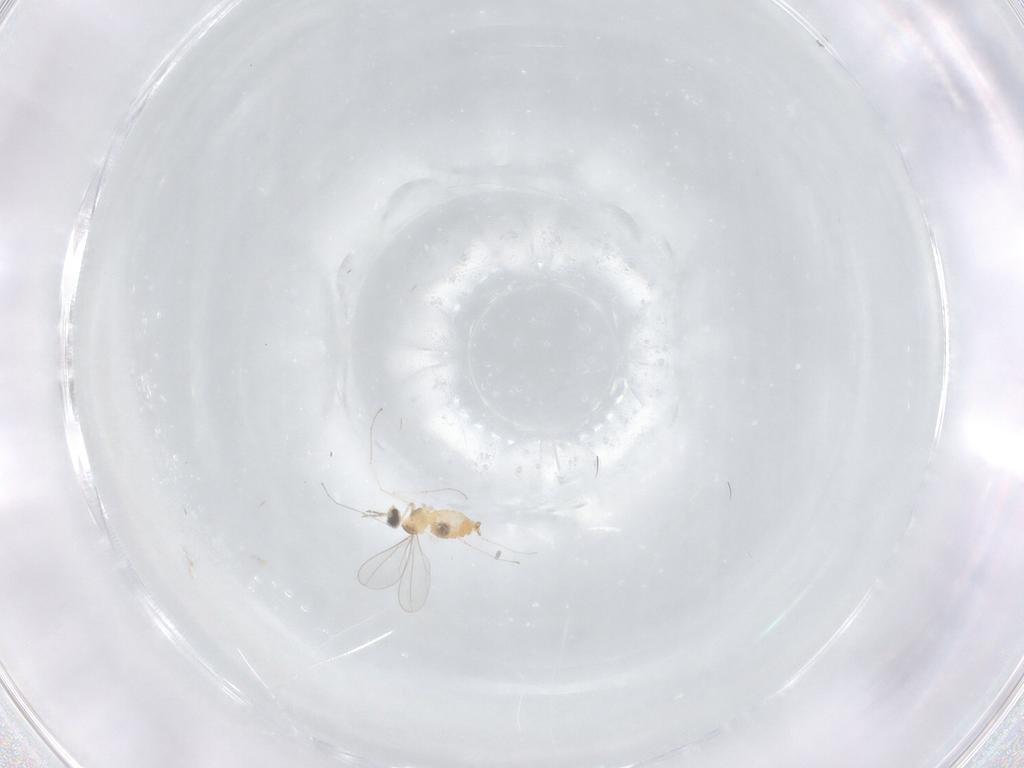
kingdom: Animalia
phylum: Arthropoda
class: Insecta
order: Diptera
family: Cecidomyiidae
